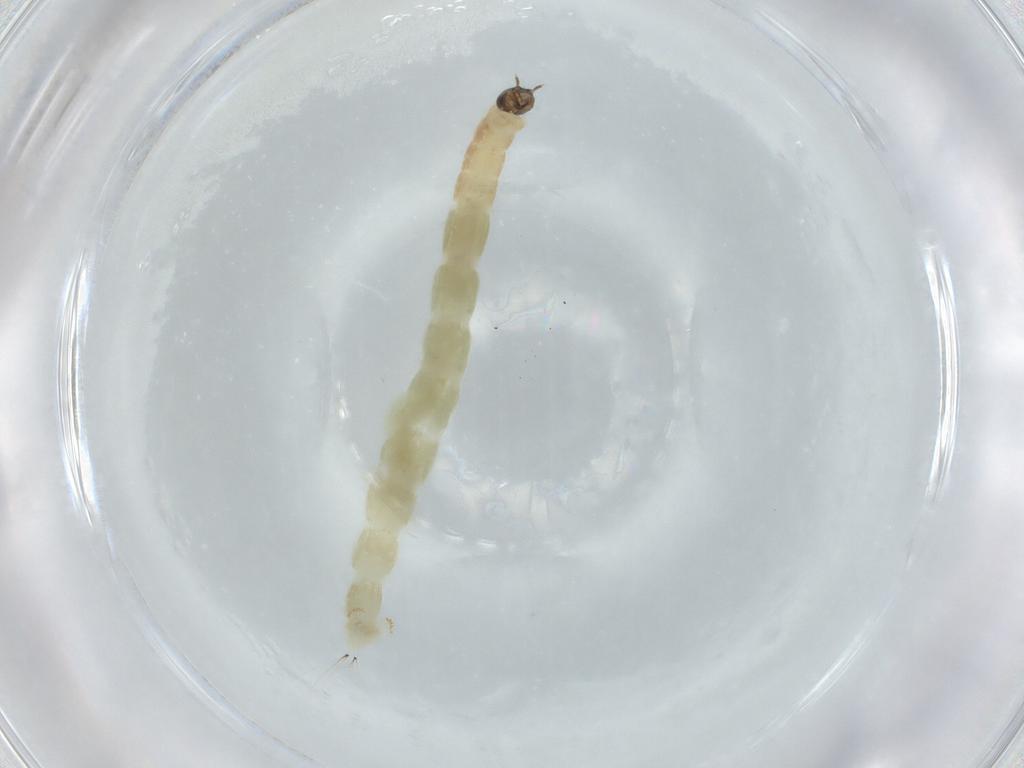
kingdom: Animalia
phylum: Arthropoda
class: Insecta
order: Diptera
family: Chironomidae
